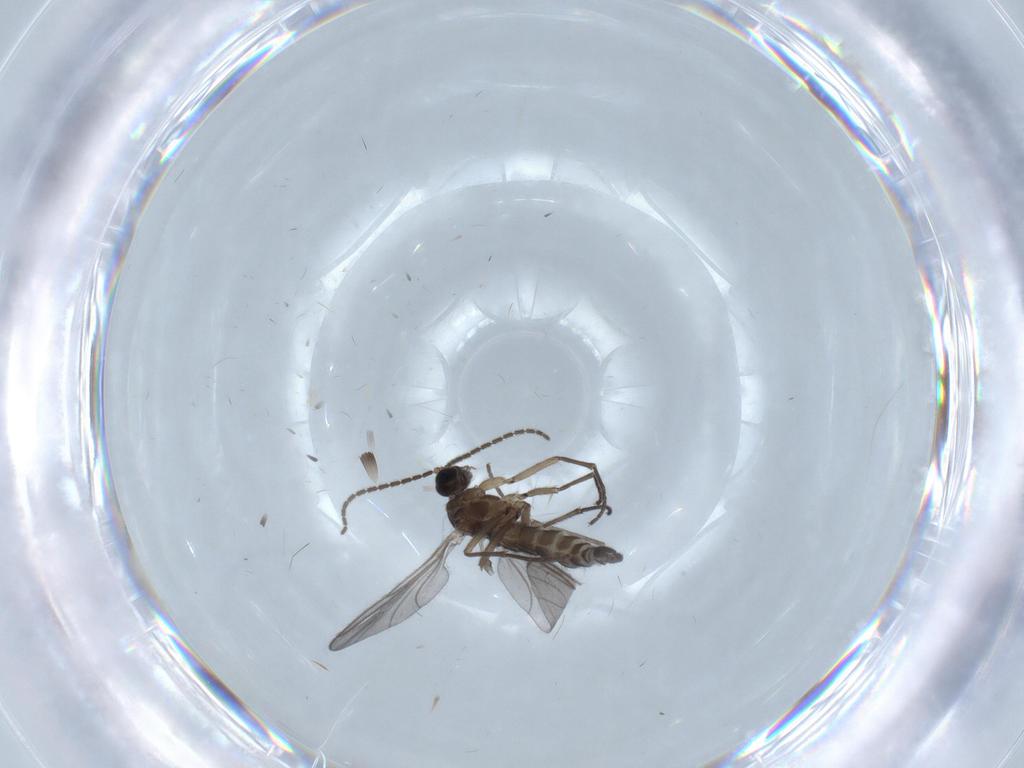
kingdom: Animalia
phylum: Arthropoda
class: Insecta
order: Diptera
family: Sciaridae
